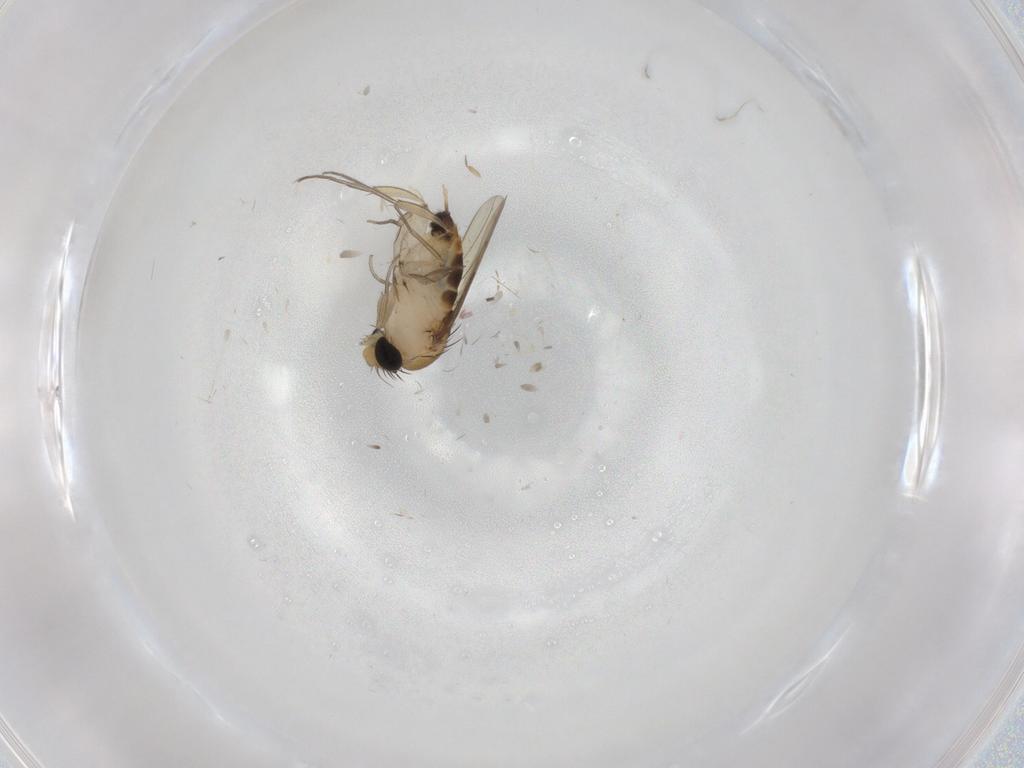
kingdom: Animalia
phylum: Arthropoda
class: Insecta
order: Diptera
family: Phoridae
